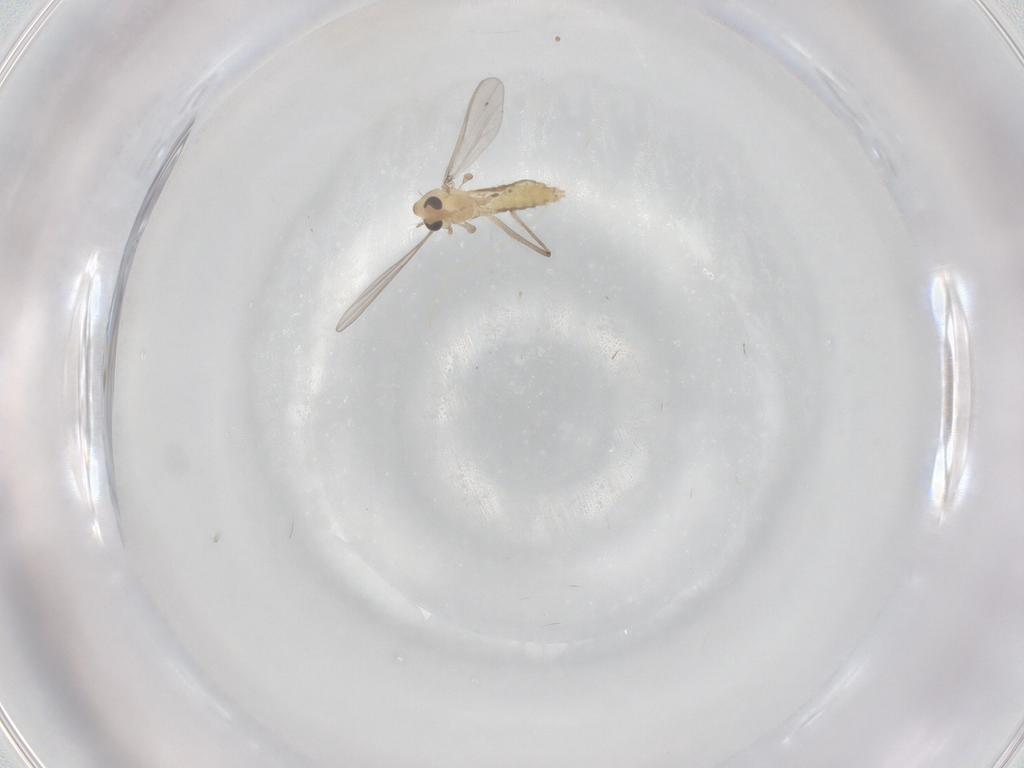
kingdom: Animalia
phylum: Arthropoda
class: Insecta
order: Diptera
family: Chironomidae
